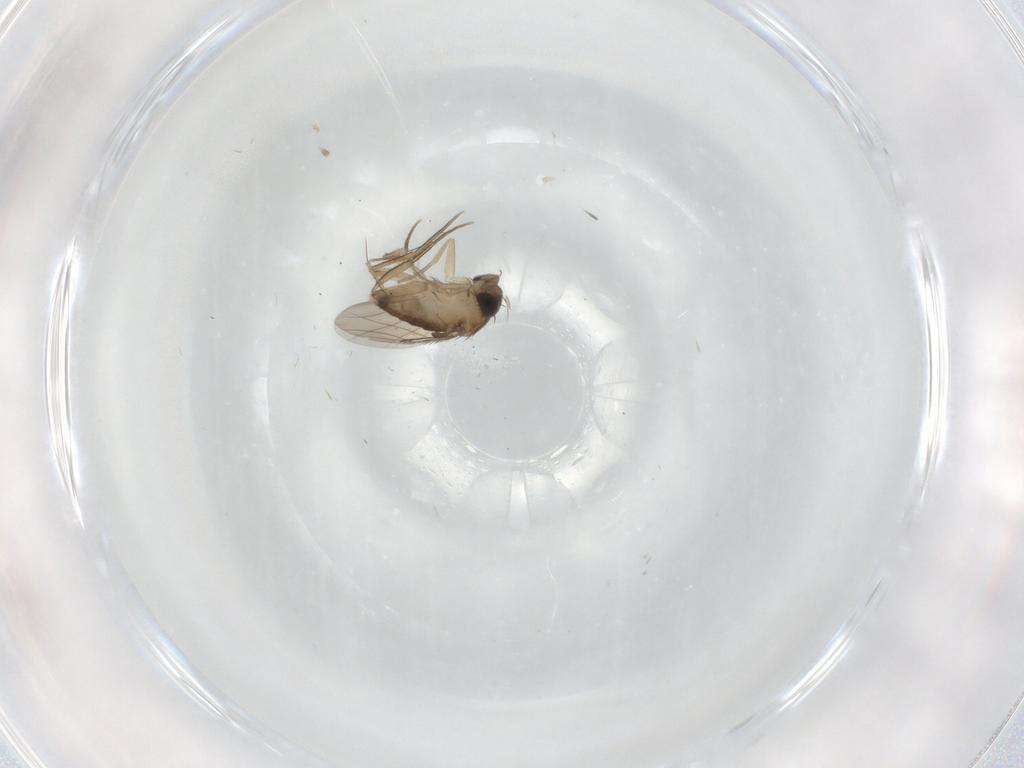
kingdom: Animalia
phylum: Arthropoda
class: Insecta
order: Diptera
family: Phoridae
